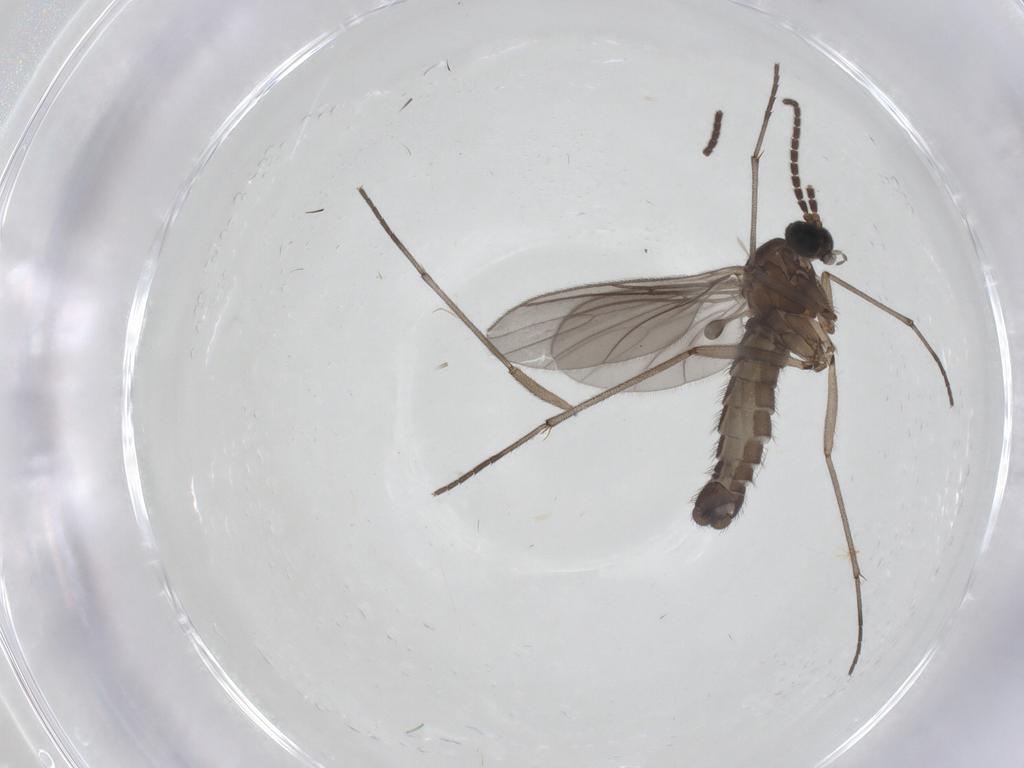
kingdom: Animalia
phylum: Arthropoda
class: Insecta
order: Diptera
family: Sciaridae
